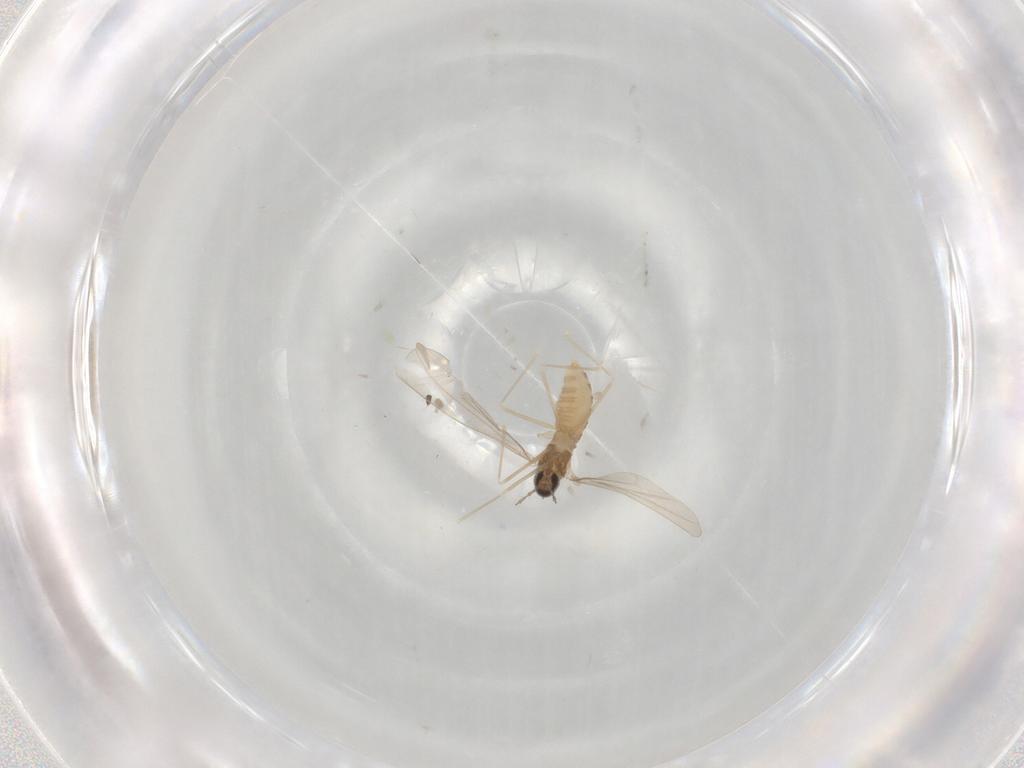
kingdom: Animalia
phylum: Arthropoda
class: Insecta
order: Diptera
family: Cecidomyiidae
